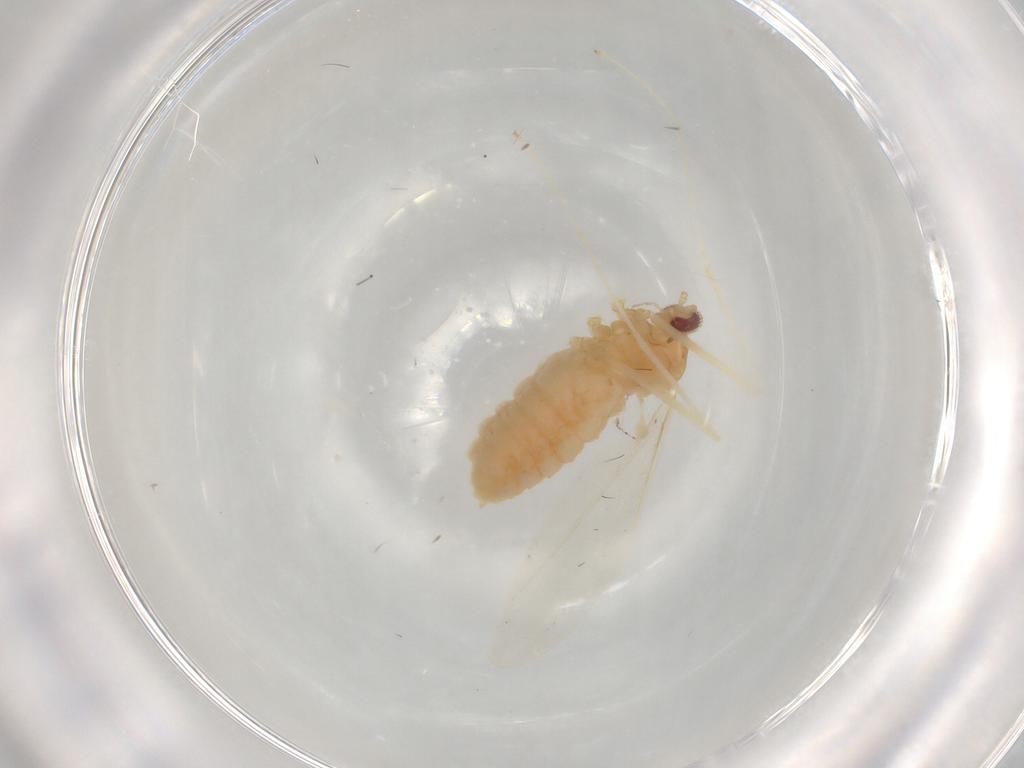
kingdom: Animalia
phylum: Arthropoda
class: Insecta
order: Diptera
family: Cecidomyiidae
